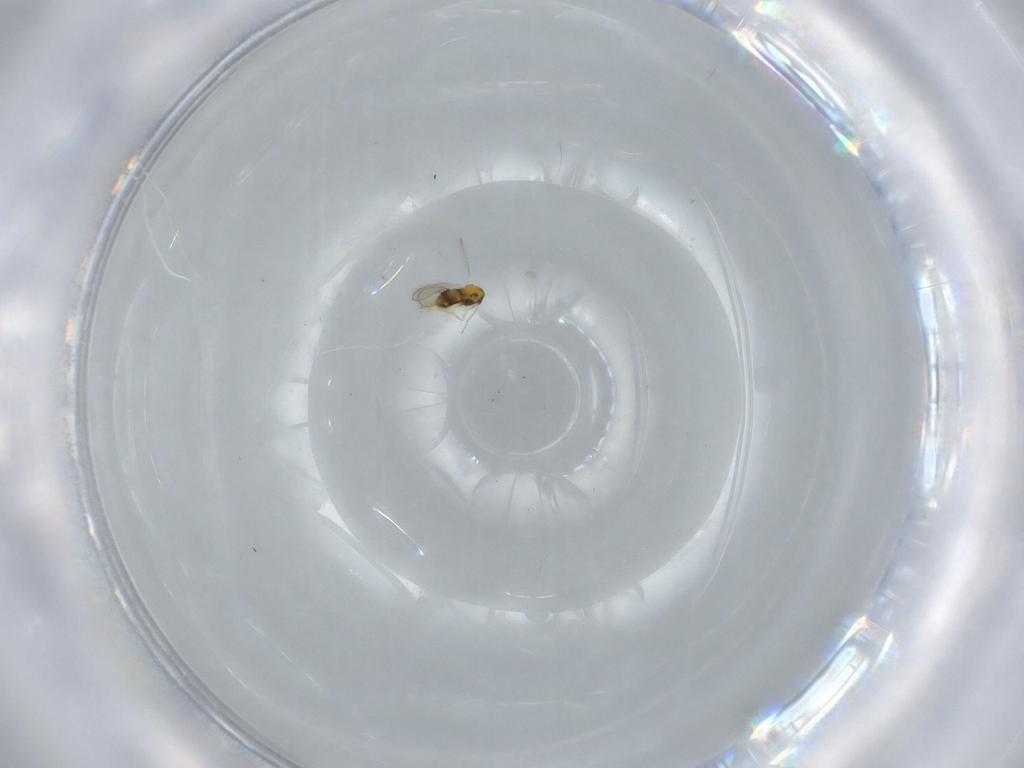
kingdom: Animalia
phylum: Arthropoda
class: Insecta
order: Hymenoptera
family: Aphelinidae
